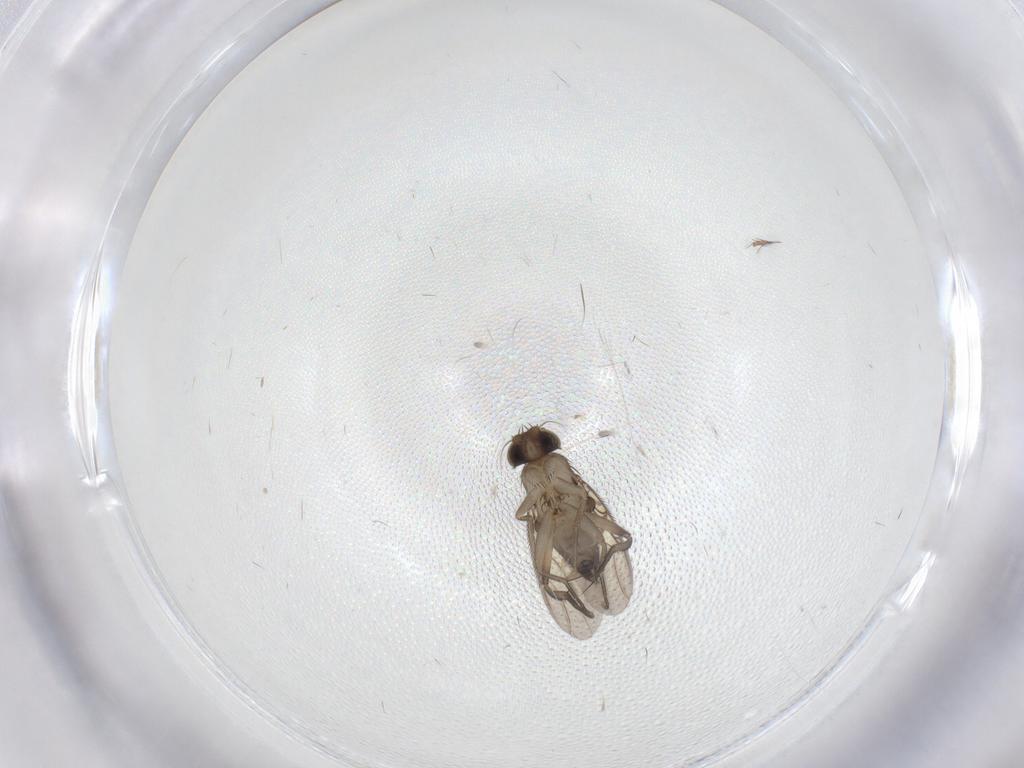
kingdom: Animalia
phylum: Arthropoda
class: Insecta
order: Diptera
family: Phoridae
